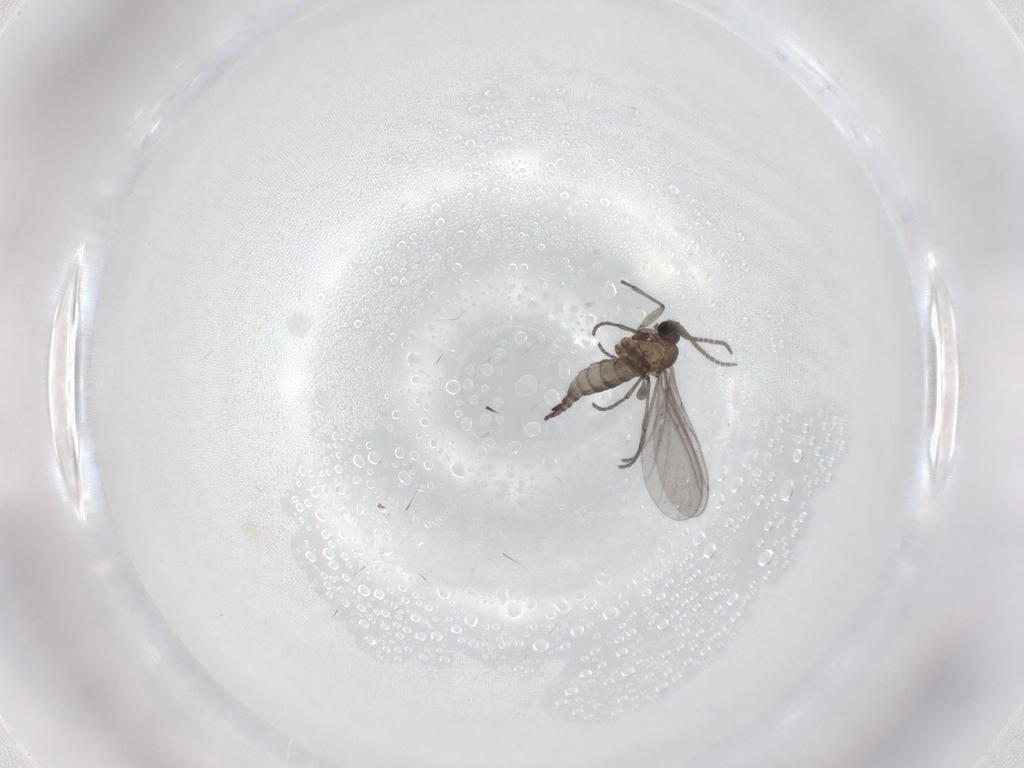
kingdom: Animalia
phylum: Arthropoda
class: Insecta
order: Diptera
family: Sciaridae
